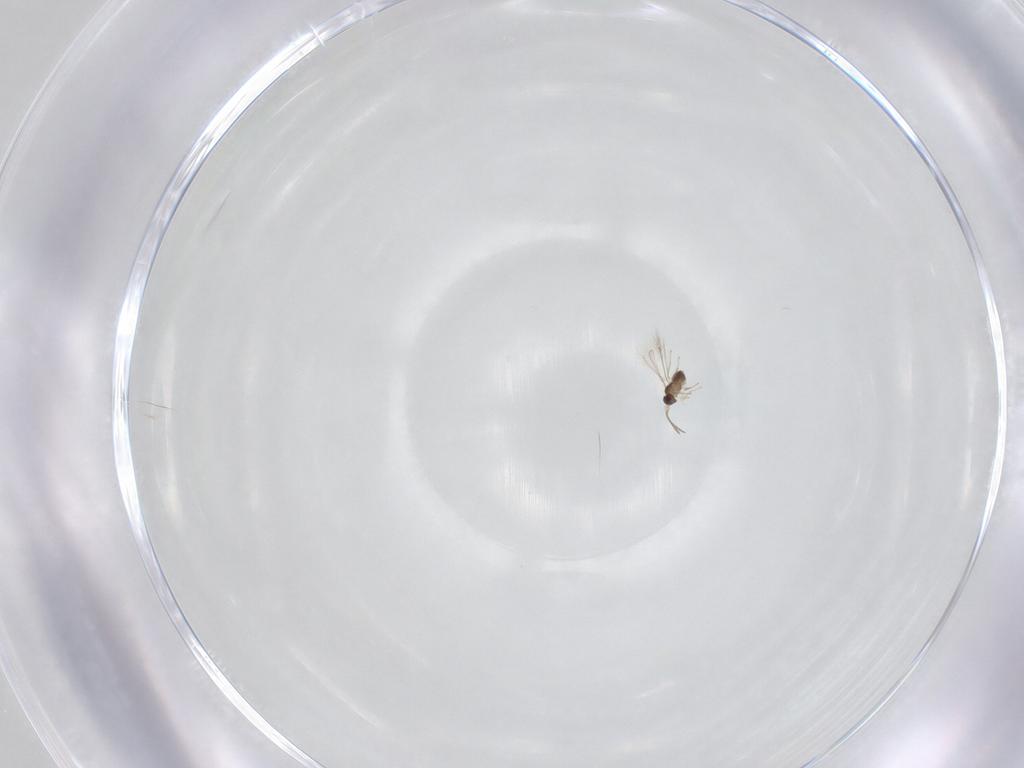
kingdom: Animalia
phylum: Arthropoda
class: Insecta
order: Hymenoptera
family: Mymaridae
